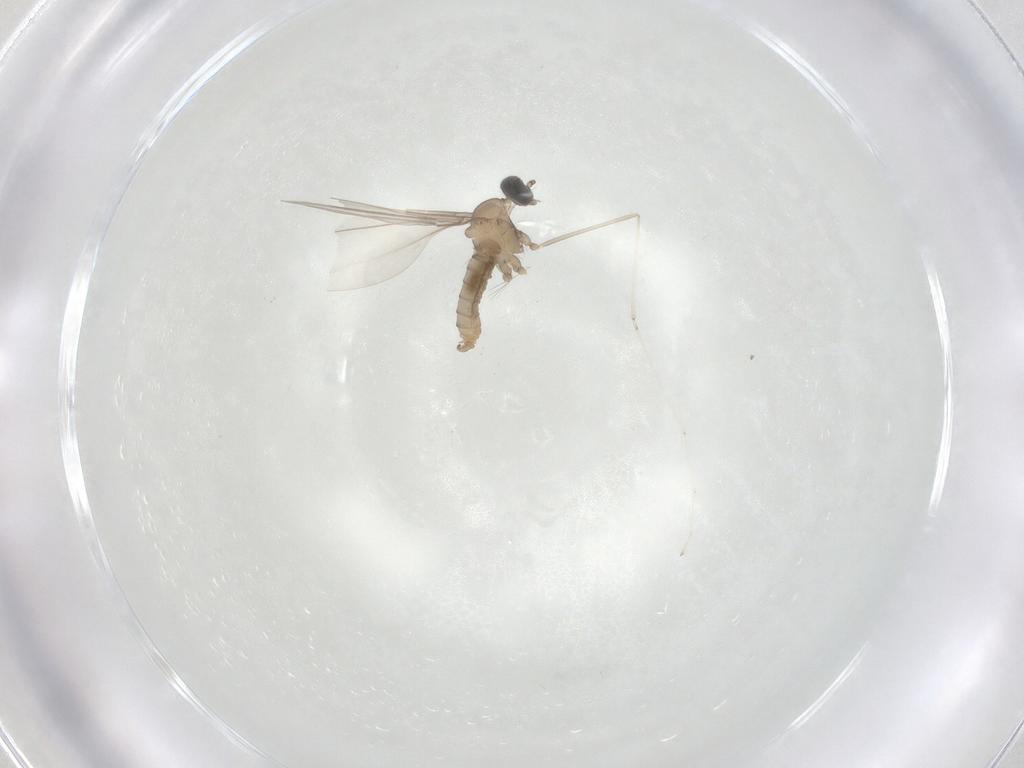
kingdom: Animalia
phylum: Arthropoda
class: Insecta
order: Diptera
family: Cecidomyiidae
